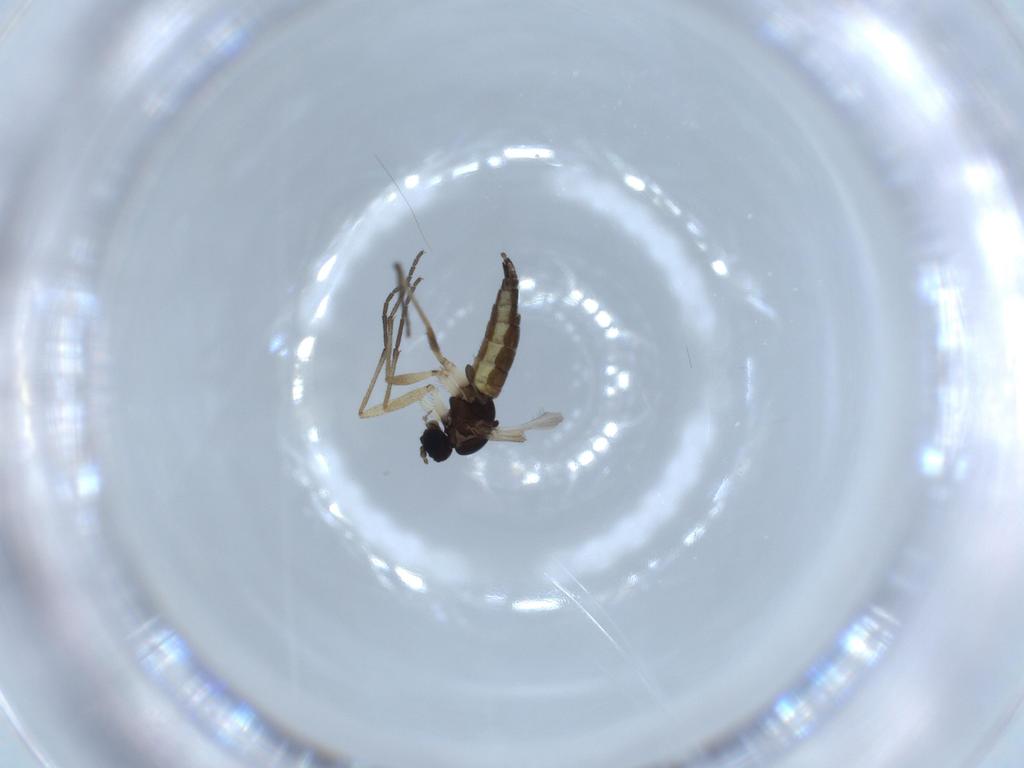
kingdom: Animalia
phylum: Arthropoda
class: Insecta
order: Diptera
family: Sciaridae
